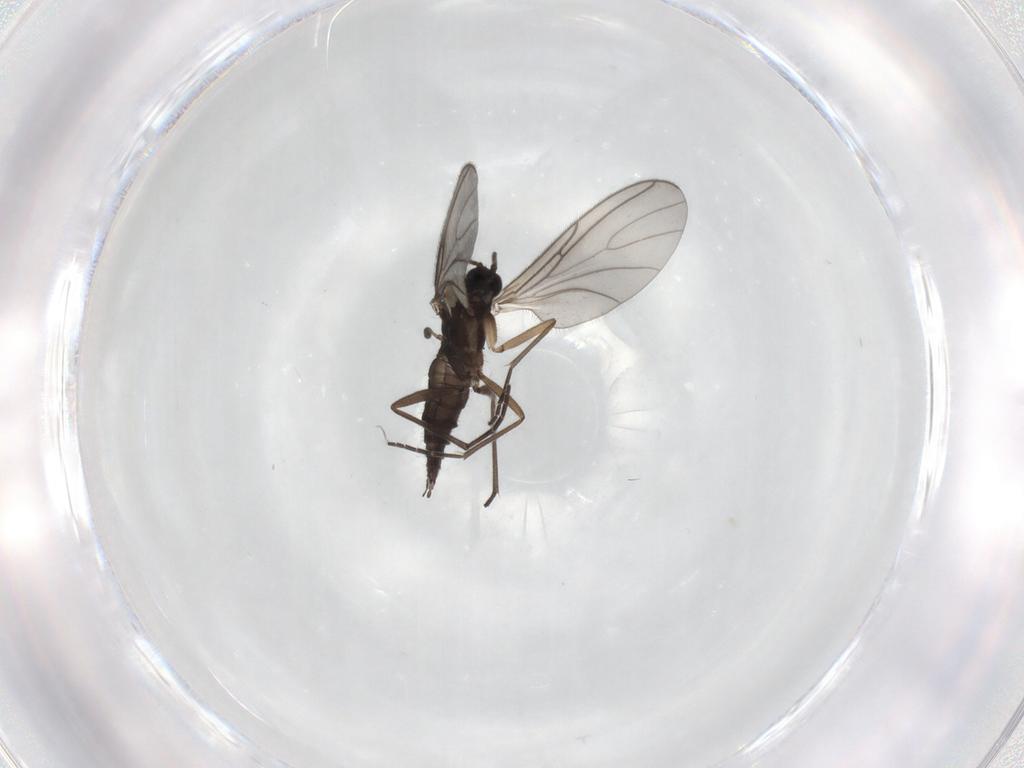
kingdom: Animalia
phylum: Arthropoda
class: Insecta
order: Diptera
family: Sciaridae
